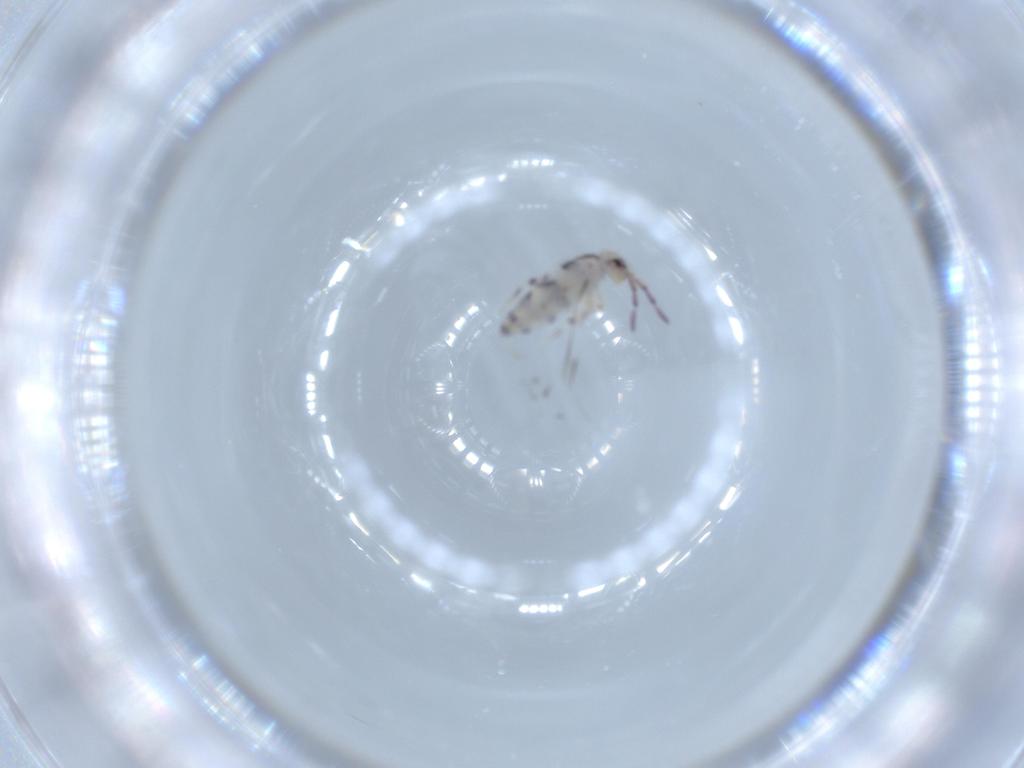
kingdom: Animalia
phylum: Arthropoda
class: Collembola
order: Entomobryomorpha
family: Entomobryidae
